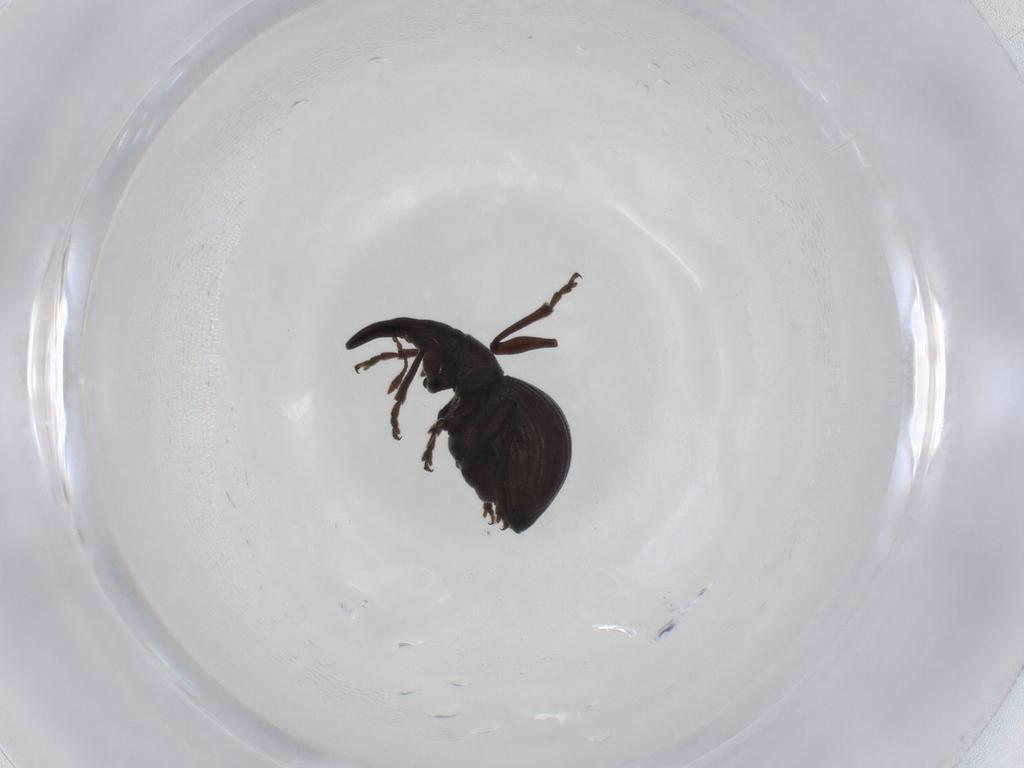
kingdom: Animalia
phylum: Arthropoda
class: Insecta
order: Coleoptera
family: Brentidae
